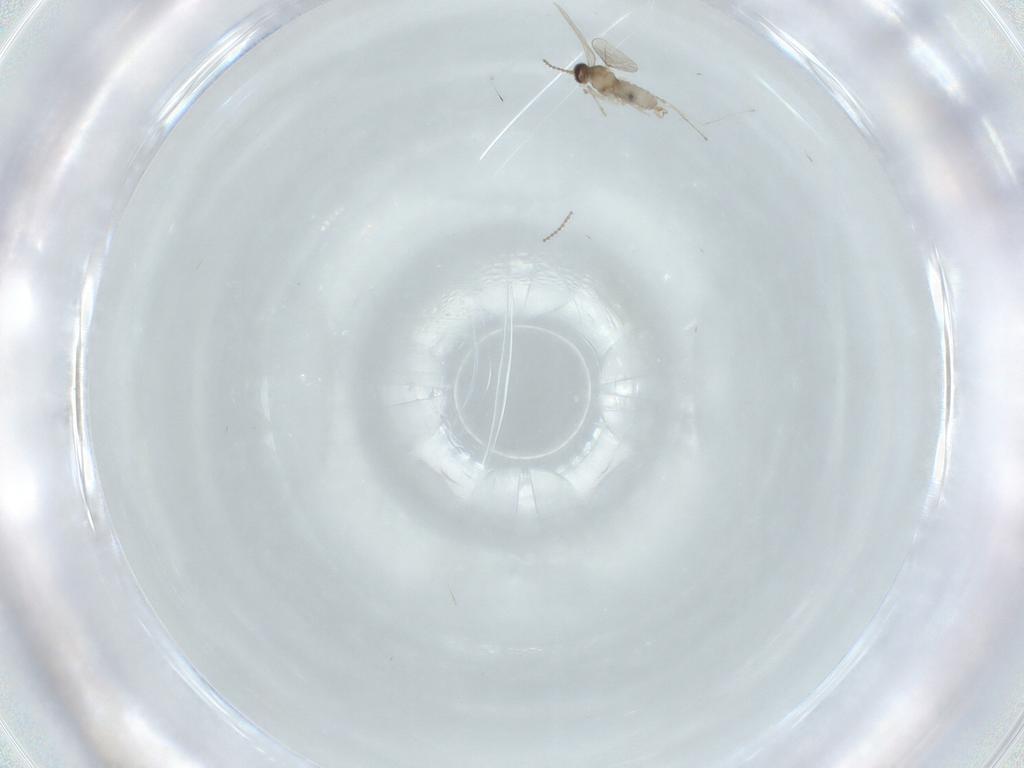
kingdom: Animalia
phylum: Arthropoda
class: Insecta
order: Diptera
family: Cecidomyiidae
